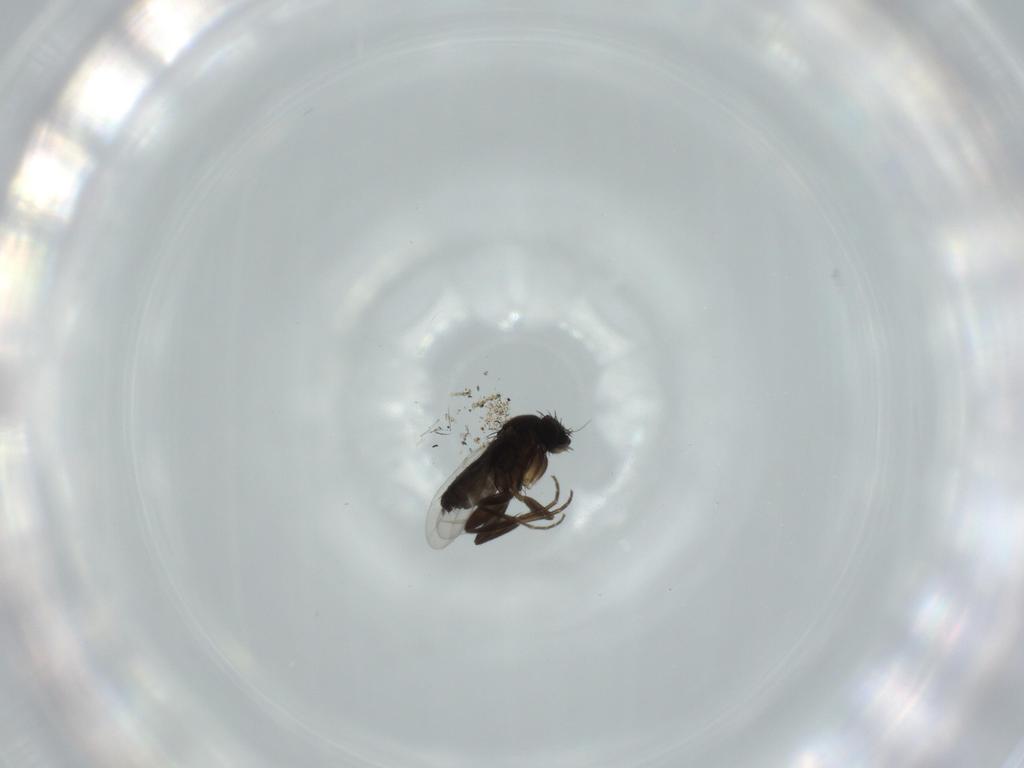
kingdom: Animalia
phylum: Arthropoda
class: Insecta
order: Diptera
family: Phoridae
